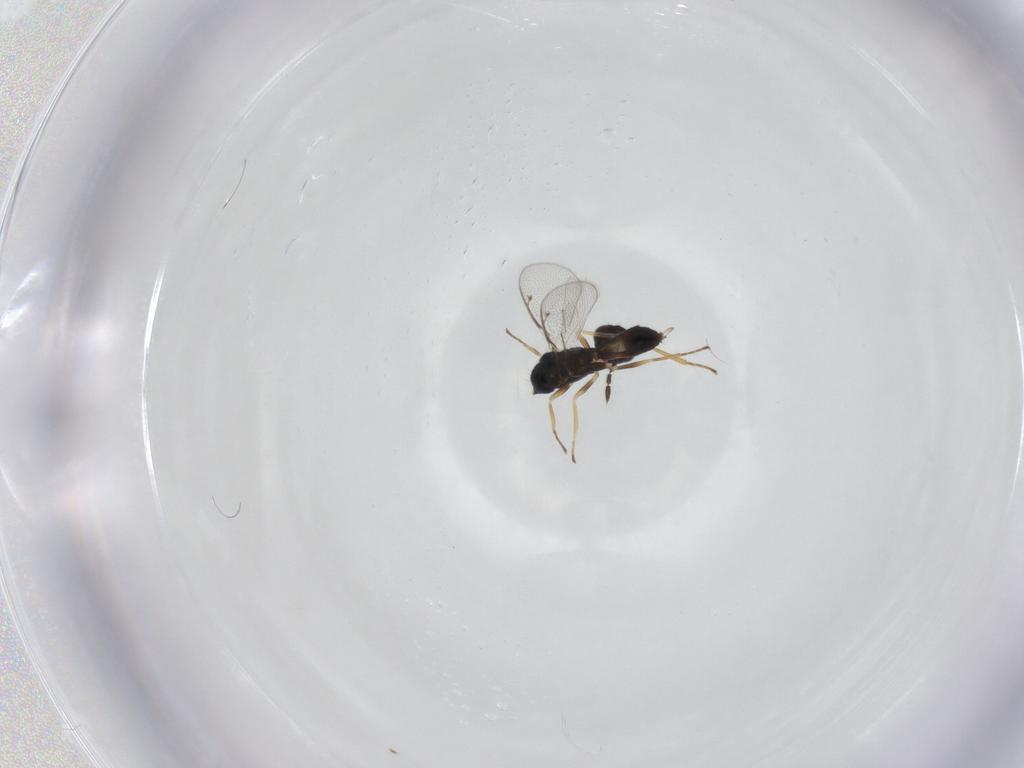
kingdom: Animalia
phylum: Arthropoda
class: Insecta
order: Hymenoptera
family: Eulophidae
